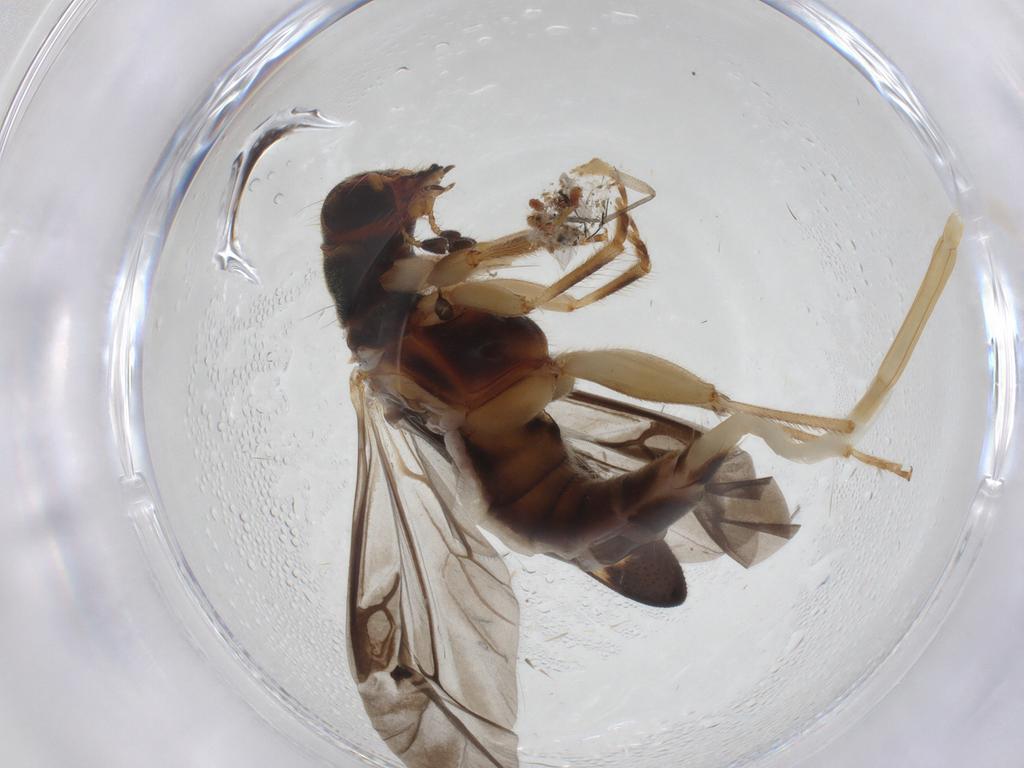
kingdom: Animalia
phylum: Arthropoda
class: Insecta
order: Coleoptera
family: Cleridae
